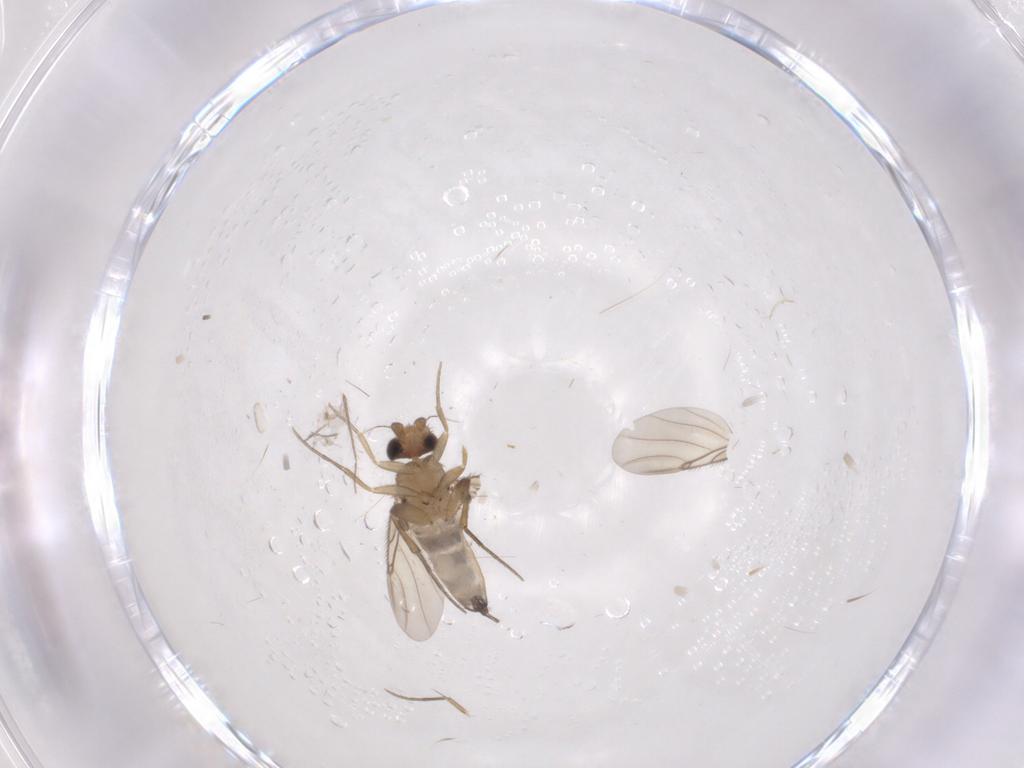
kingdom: Animalia
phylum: Arthropoda
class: Insecta
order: Diptera
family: Phoridae
